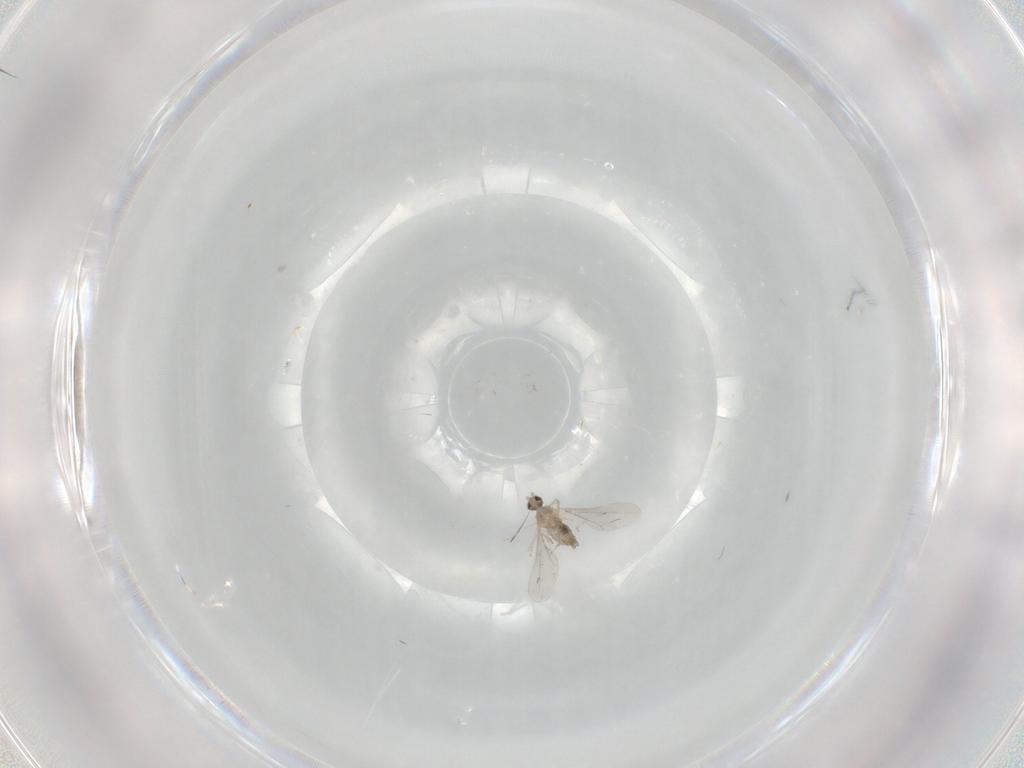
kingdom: Animalia
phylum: Arthropoda
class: Insecta
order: Diptera
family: Cecidomyiidae
